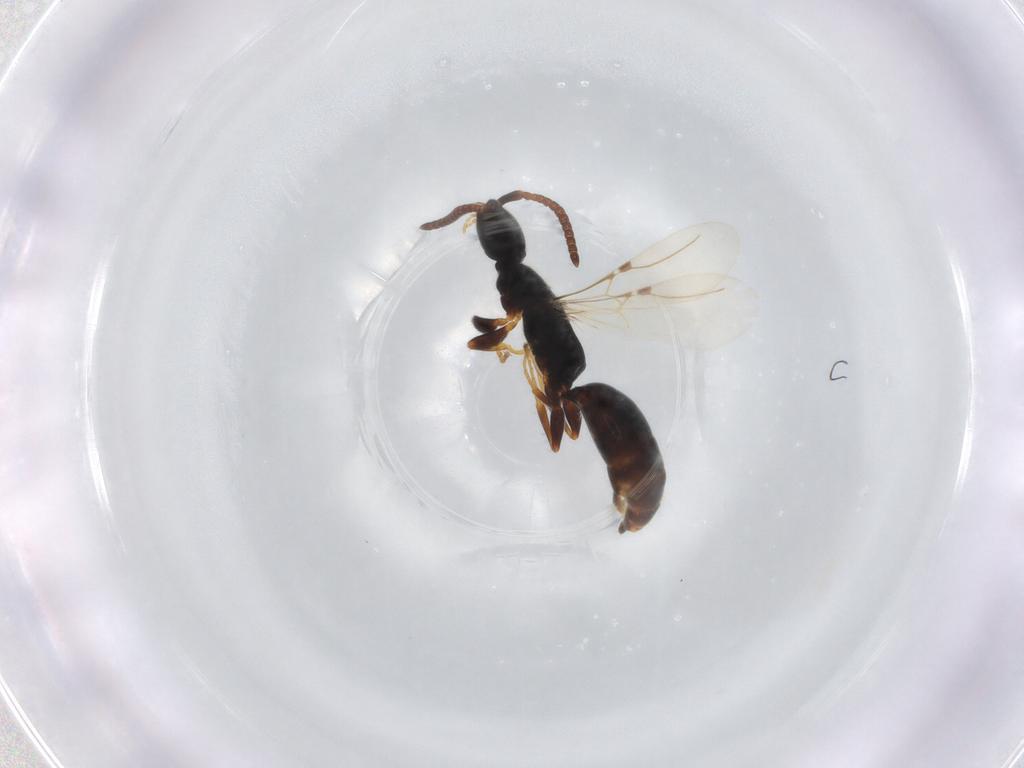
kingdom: Animalia
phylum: Arthropoda
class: Insecta
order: Hymenoptera
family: Bethylidae
